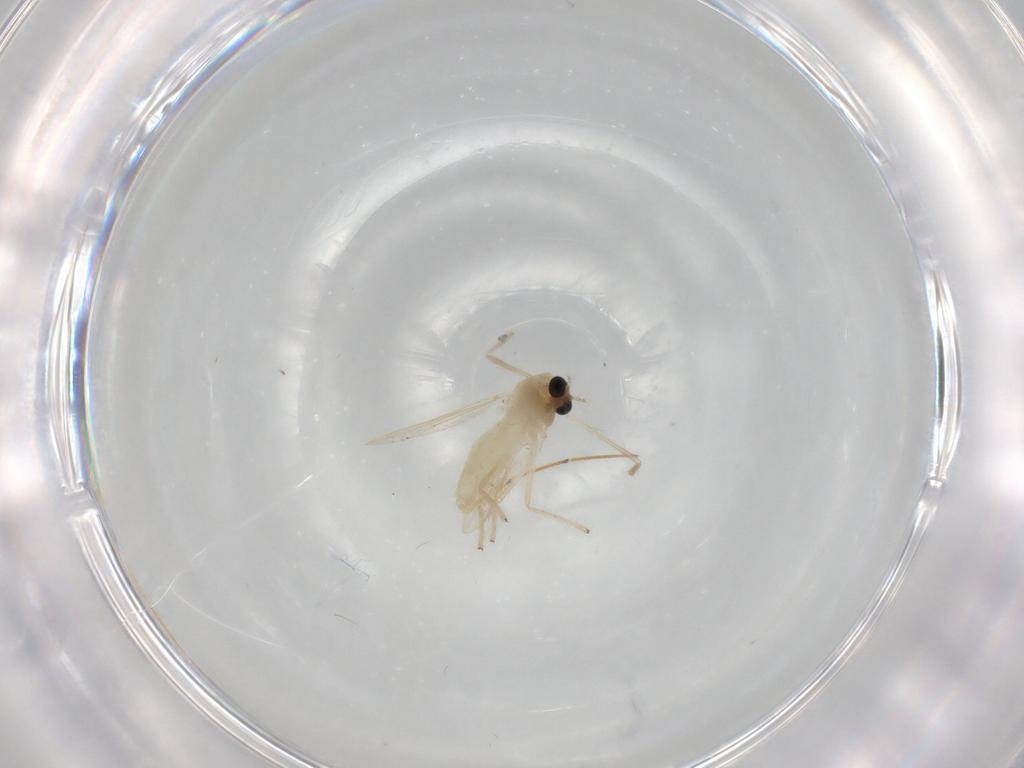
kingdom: Animalia
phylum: Arthropoda
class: Insecta
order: Diptera
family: Chironomidae
